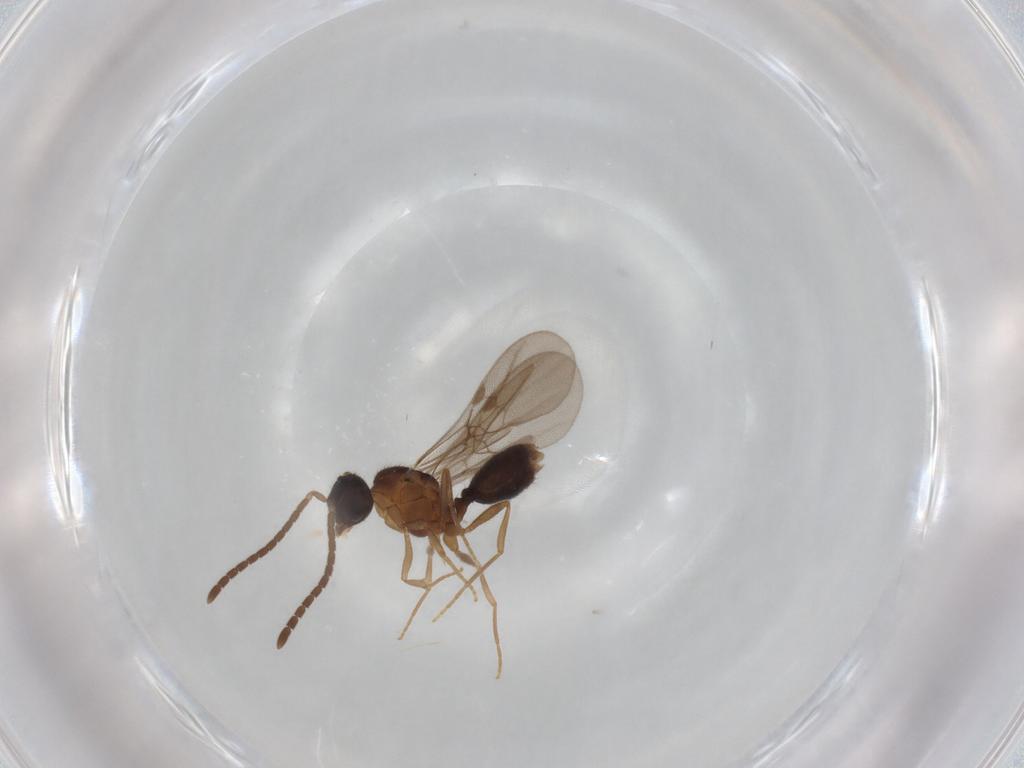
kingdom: Animalia
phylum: Arthropoda
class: Insecta
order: Hymenoptera
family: Formicidae
